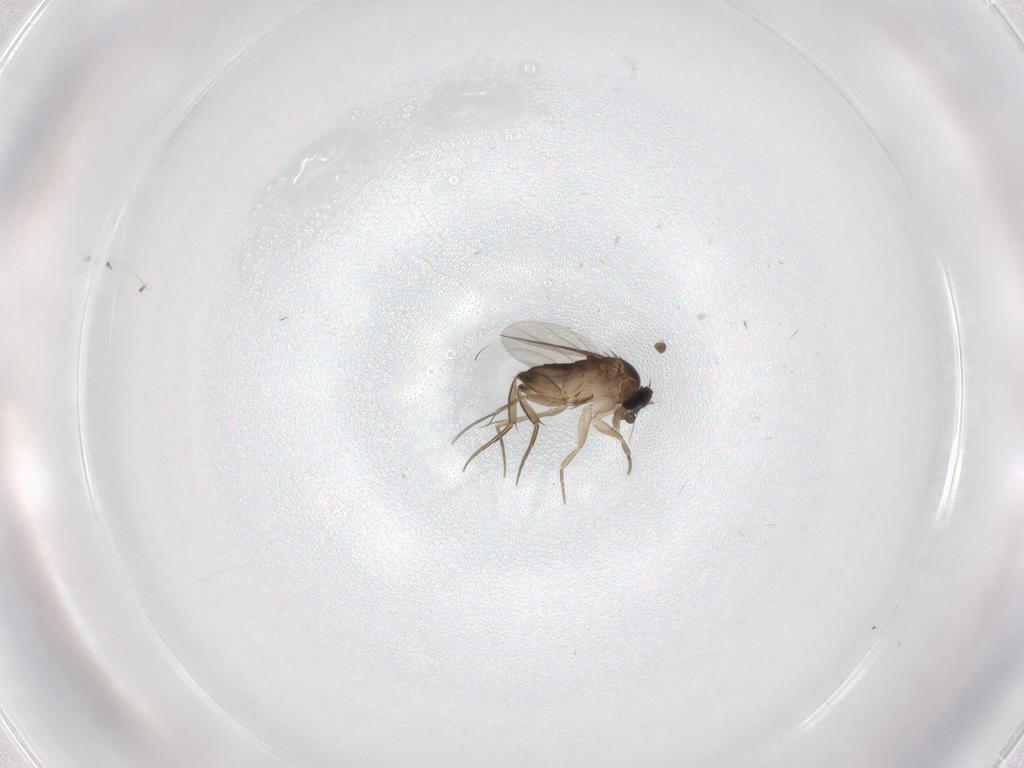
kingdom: Animalia
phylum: Arthropoda
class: Insecta
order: Diptera
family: Phoridae
